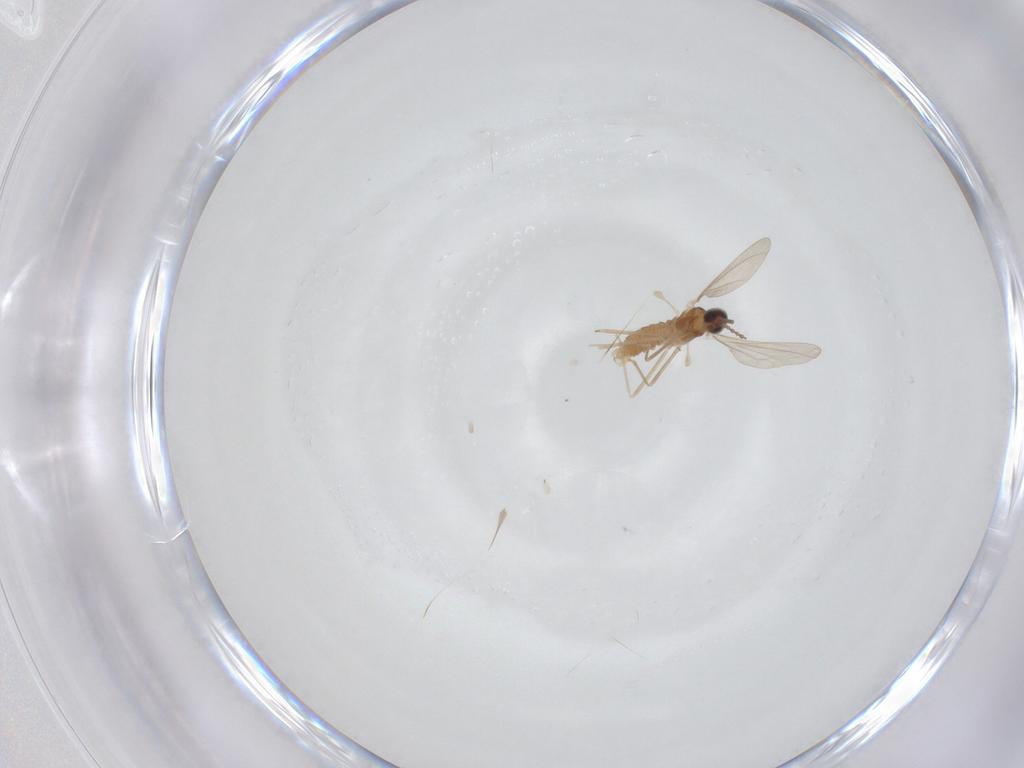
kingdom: Animalia
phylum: Arthropoda
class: Insecta
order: Diptera
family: Cecidomyiidae
